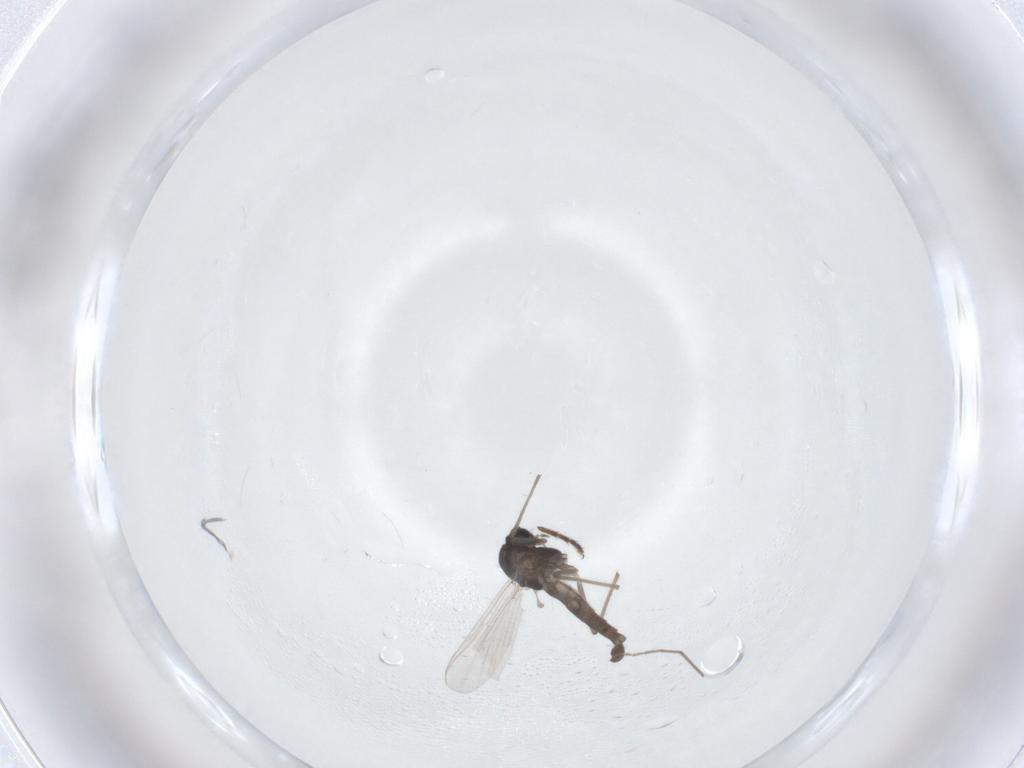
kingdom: Animalia
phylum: Arthropoda
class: Insecta
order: Diptera
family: Chironomidae
